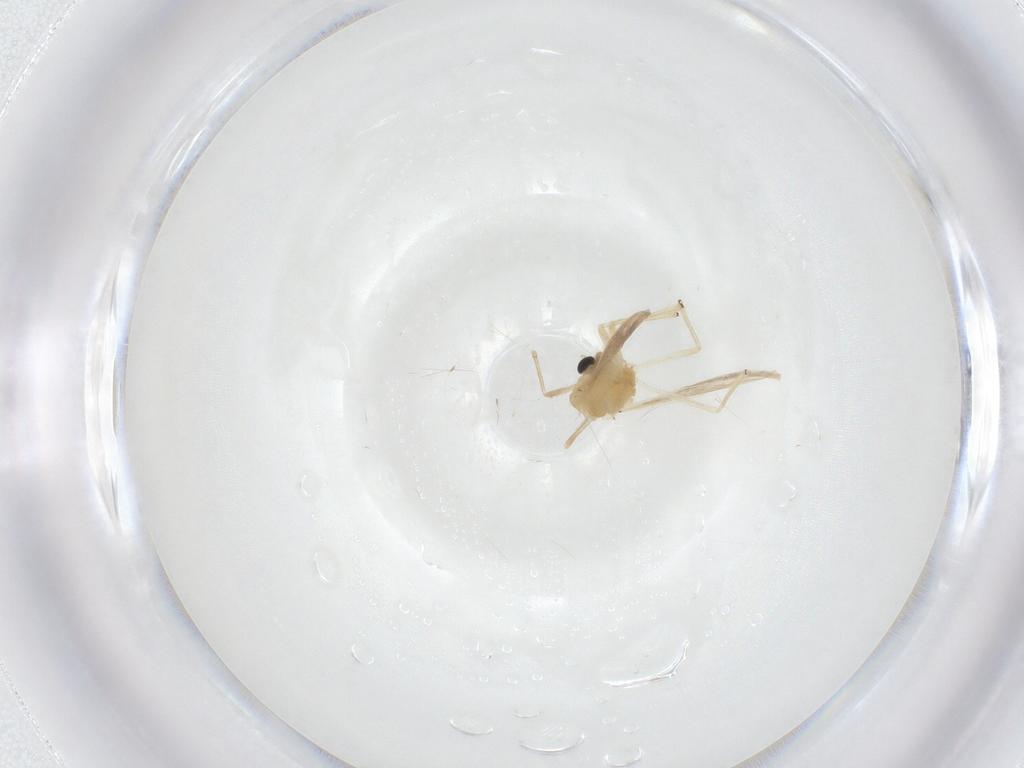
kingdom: Animalia
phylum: Arthropoda
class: Insecta
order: Diptera
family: Chironomidae
